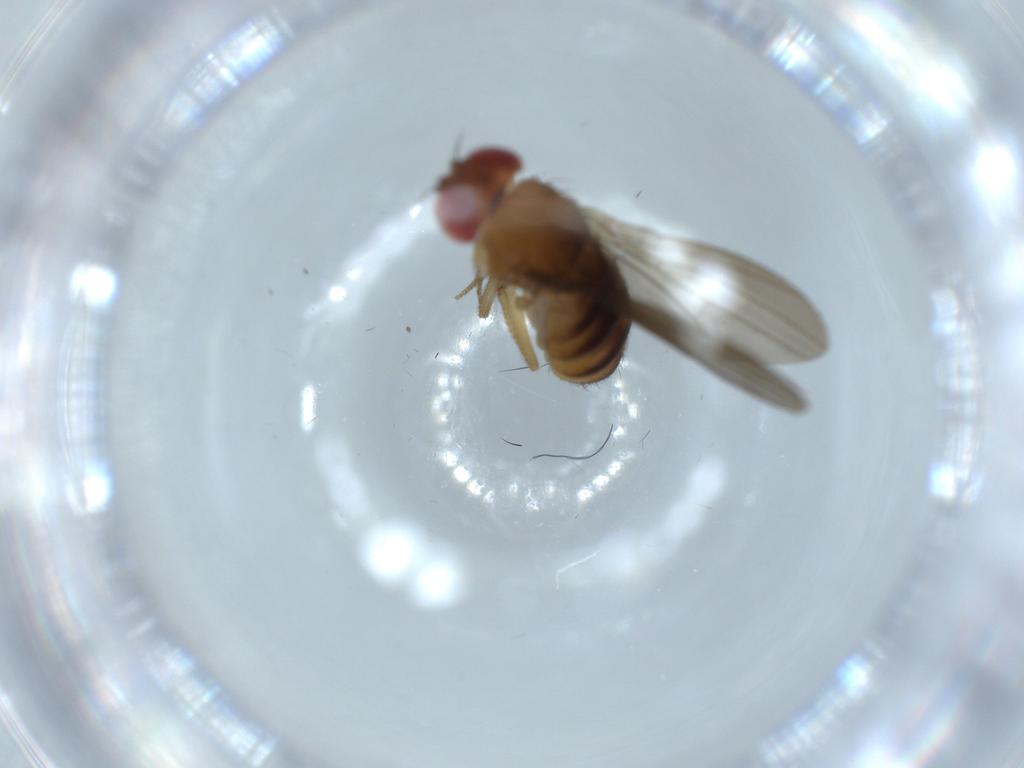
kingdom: Animalia
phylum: Arthropoda
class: Insecta
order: Diptera
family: Drosophilidae
